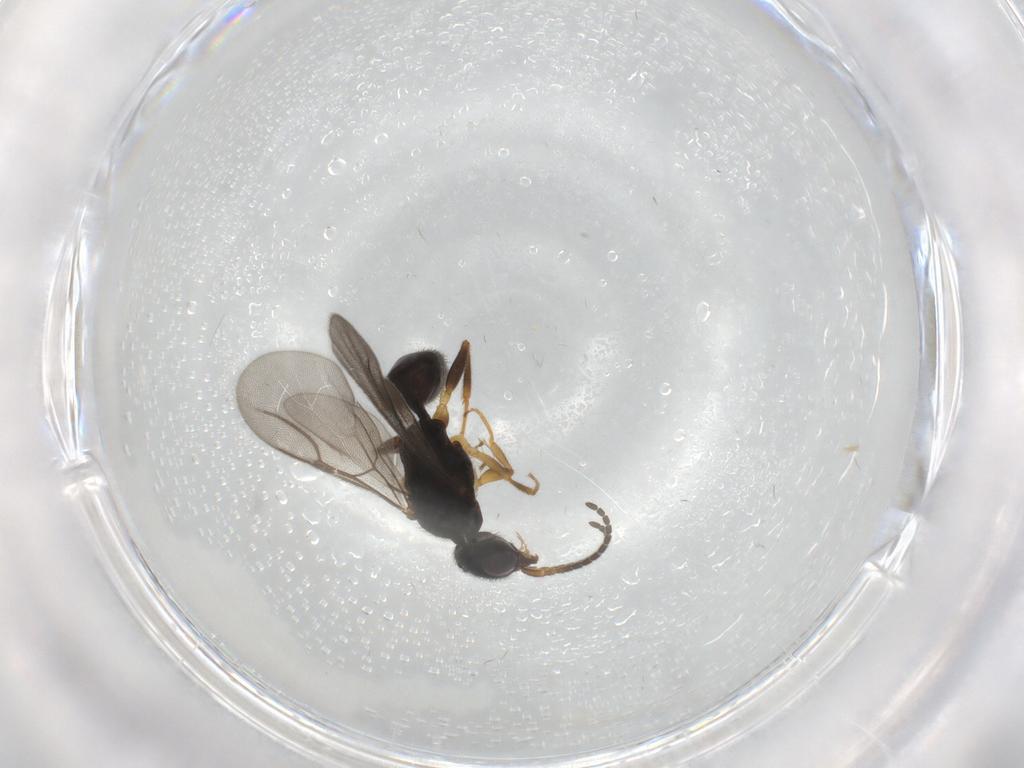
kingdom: Animalia
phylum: Arthropoda
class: Insecta
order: Hymenoptera
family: Bethylidae
